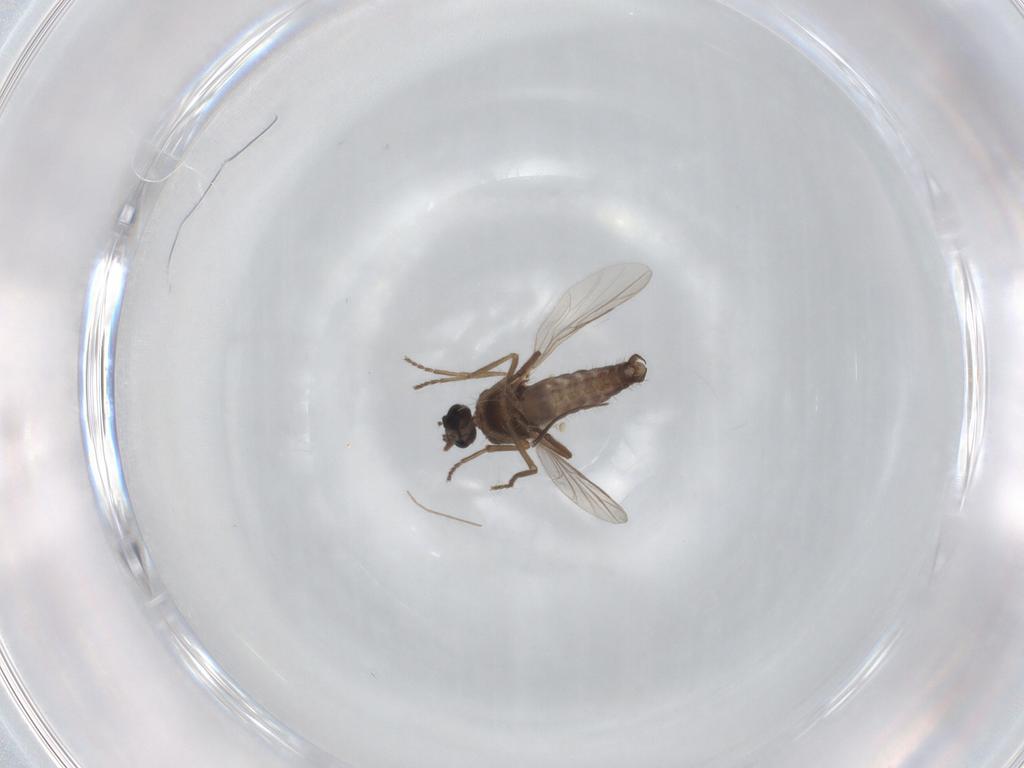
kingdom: Animalia
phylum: Arthropoda
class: Insecta
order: Diptera
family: Ceratopogonidae
